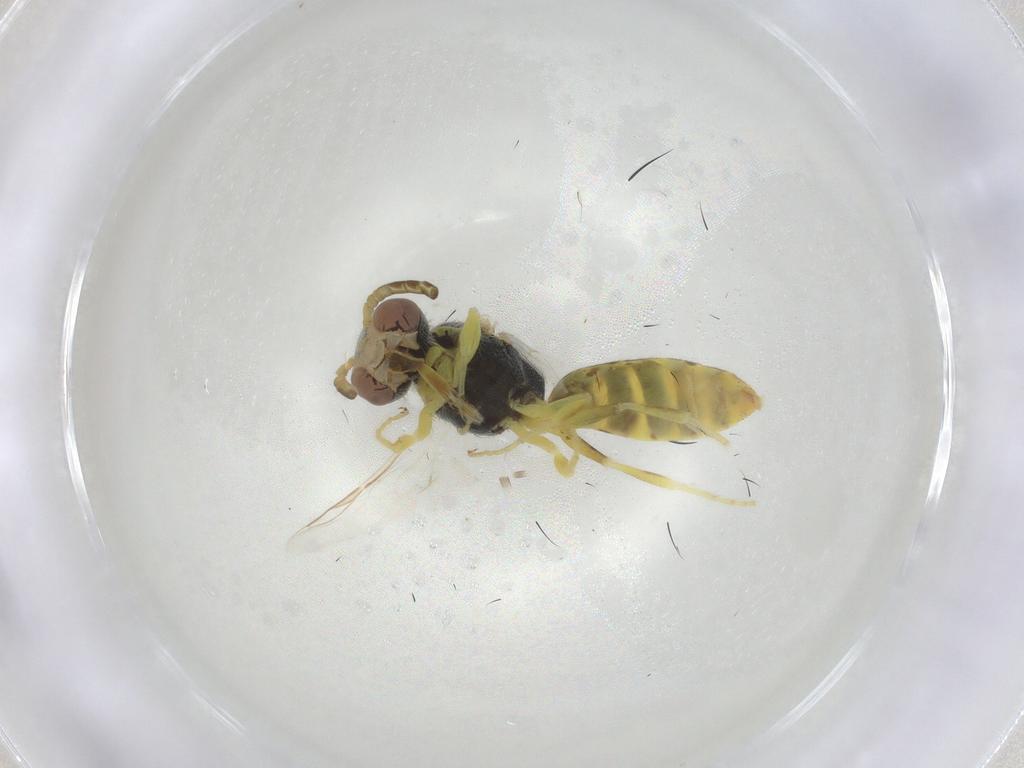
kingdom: Animalia
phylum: Arthropoda
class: Insecta
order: Hymenoptera
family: Halictidae
